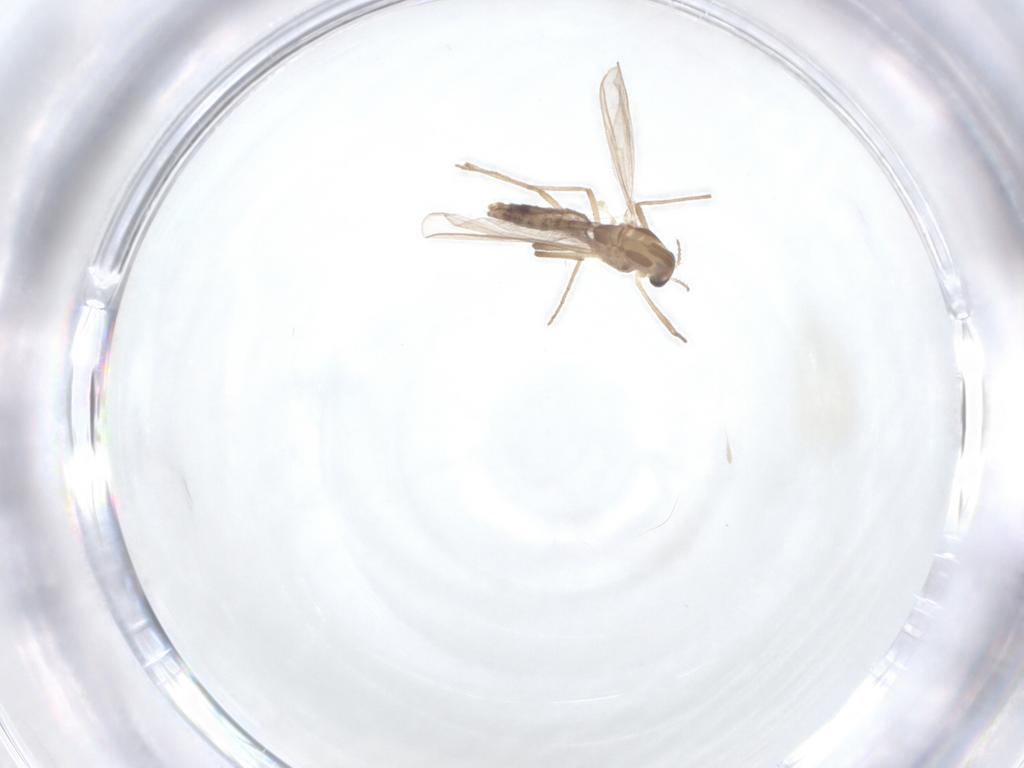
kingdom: Animalia
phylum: Arthropoda
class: Insecta
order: Diptera
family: Chironomidae
